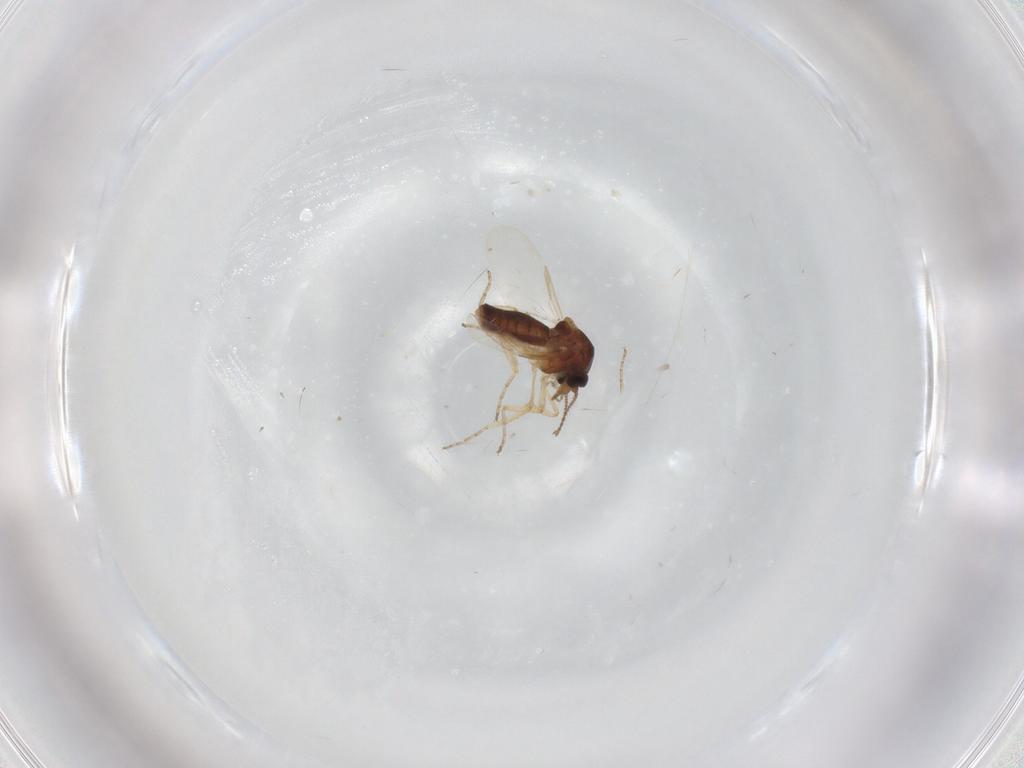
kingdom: Animalia
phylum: Arthropoda
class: Insecta
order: Diptera
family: Ceratopogonidae
